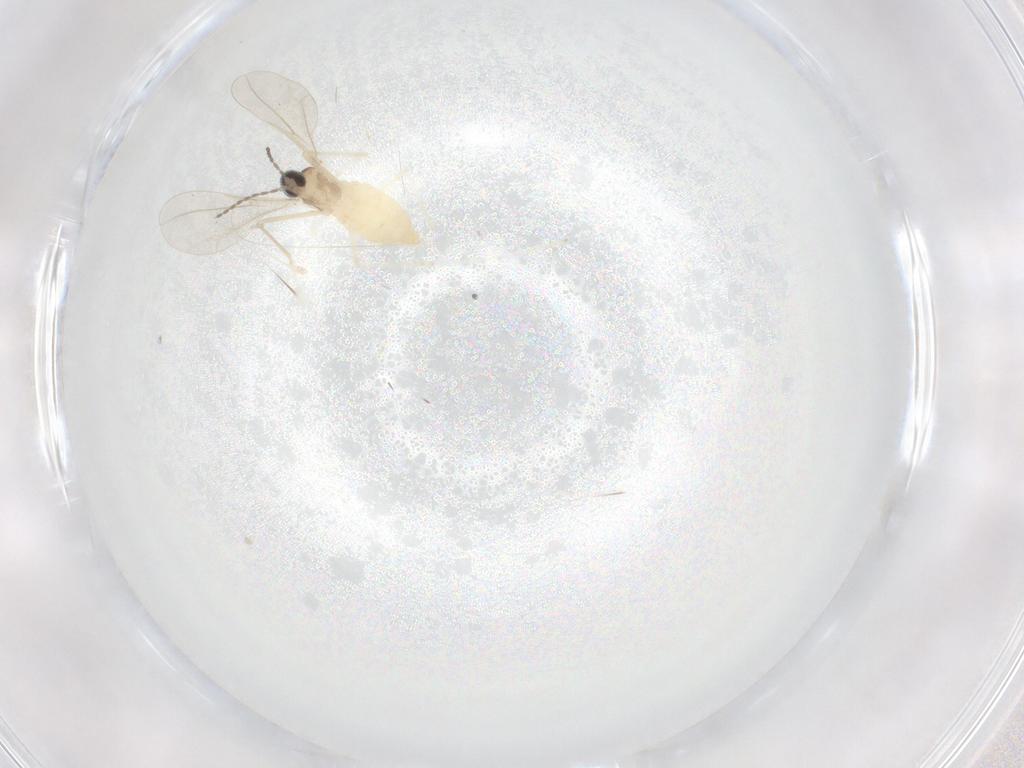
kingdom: Animalia
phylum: Arthropoda
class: Insecta
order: Diptera
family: Cecidomyiidae
